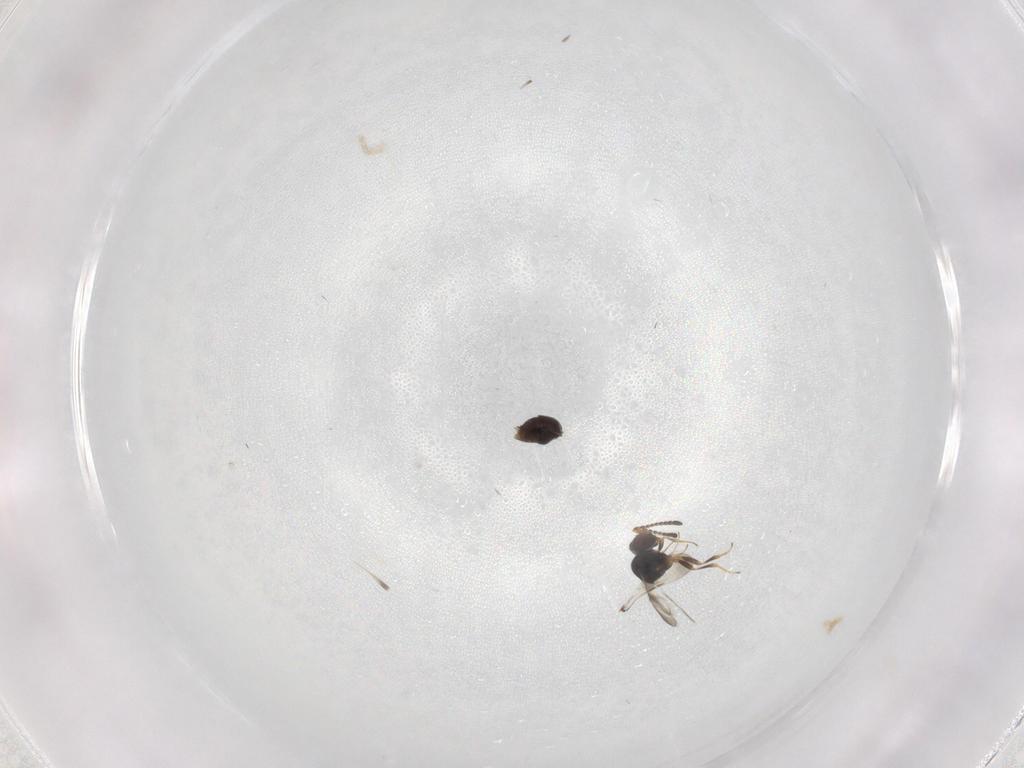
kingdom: Animalia
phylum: Arthropoda
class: Insecta
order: Hymenoptera
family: Ceraphronidae
